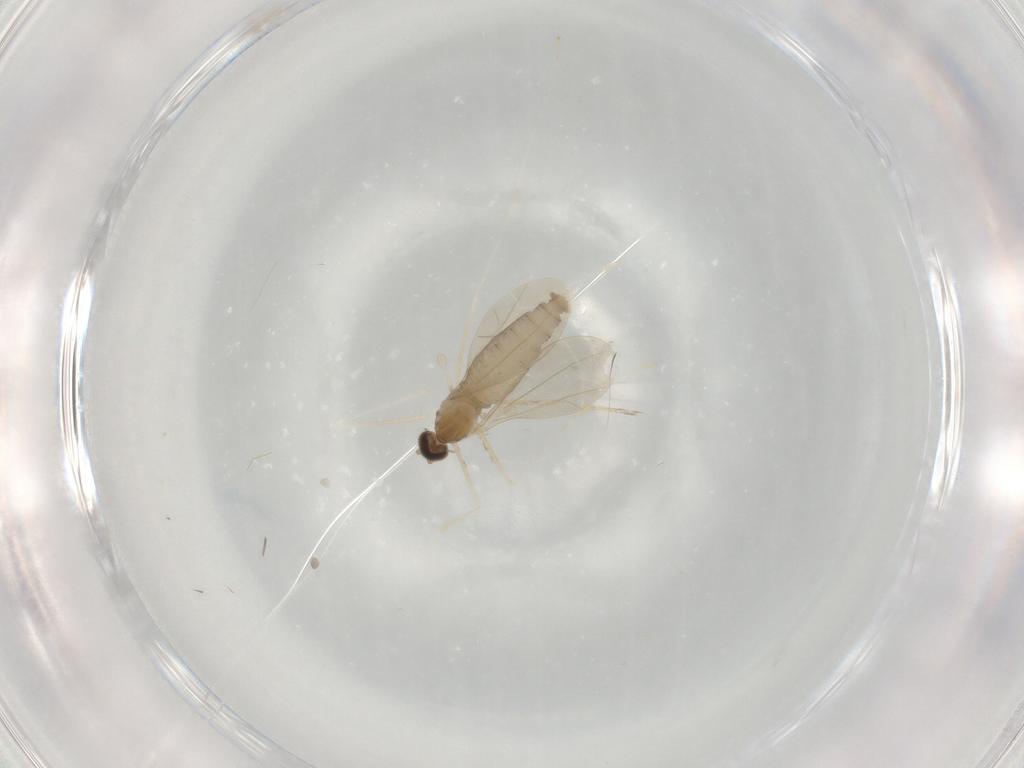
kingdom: Animalia
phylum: Arthropoda
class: Insecta
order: Diptera
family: Cecidomyiidae
